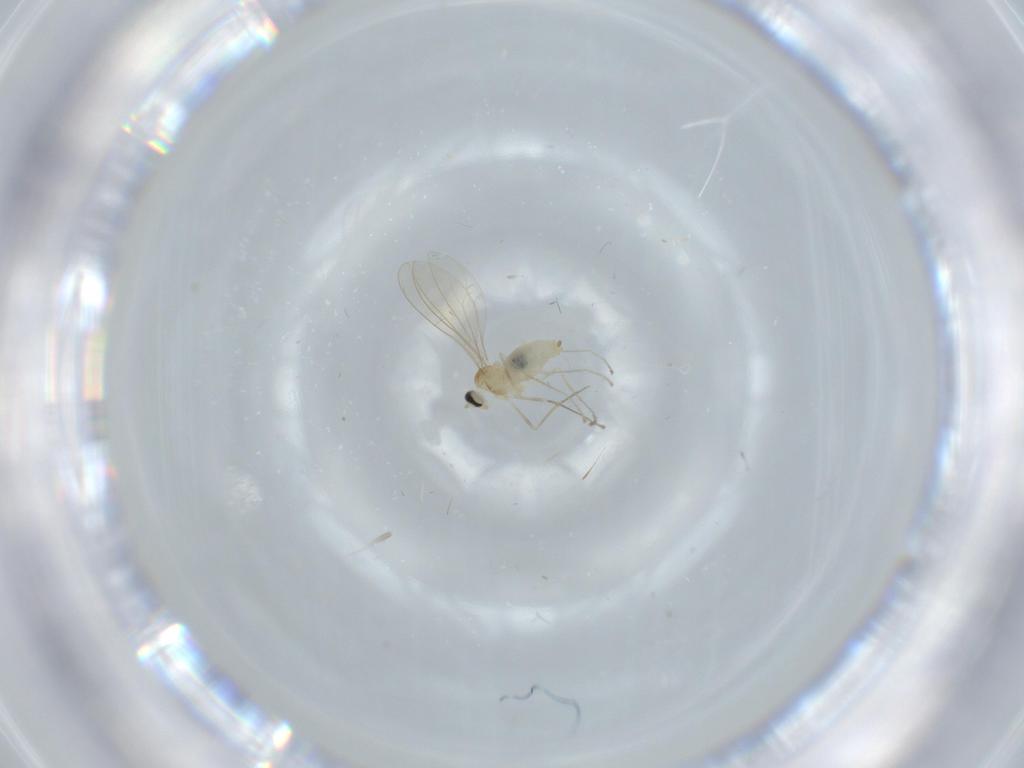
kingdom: Animalia
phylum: Arthropoda
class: Insecta
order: Diptera
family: Cecidomyiidae
